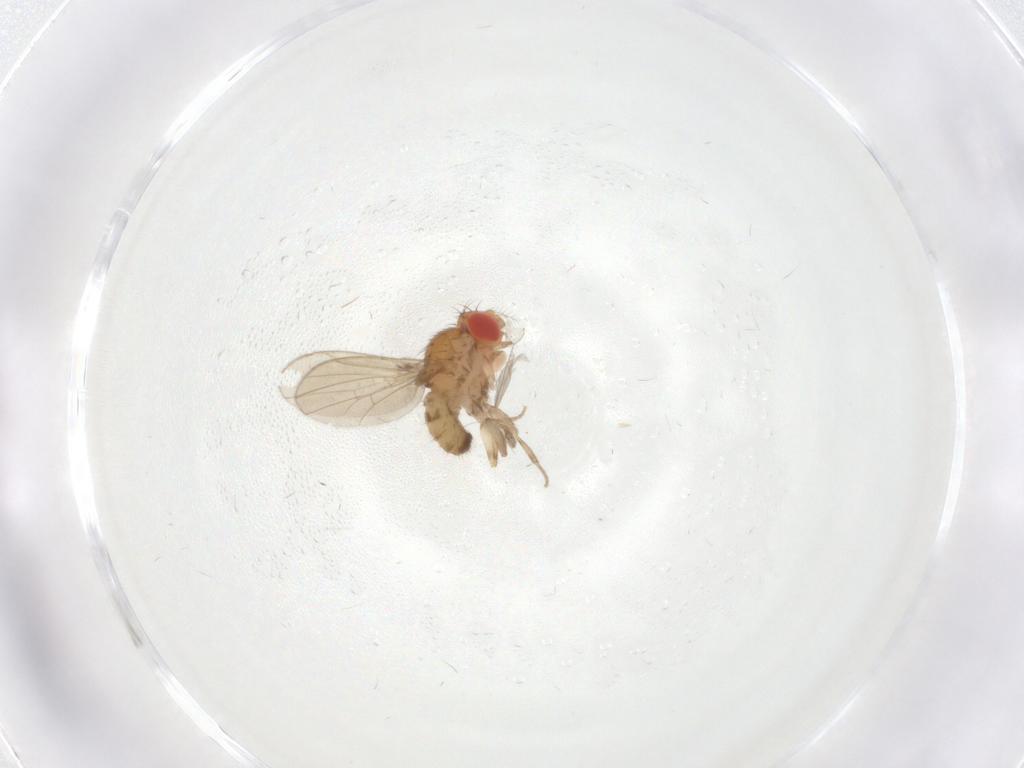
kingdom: Animalia
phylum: Arthropoda
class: Insecta
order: Diptera
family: Drosophilidae
